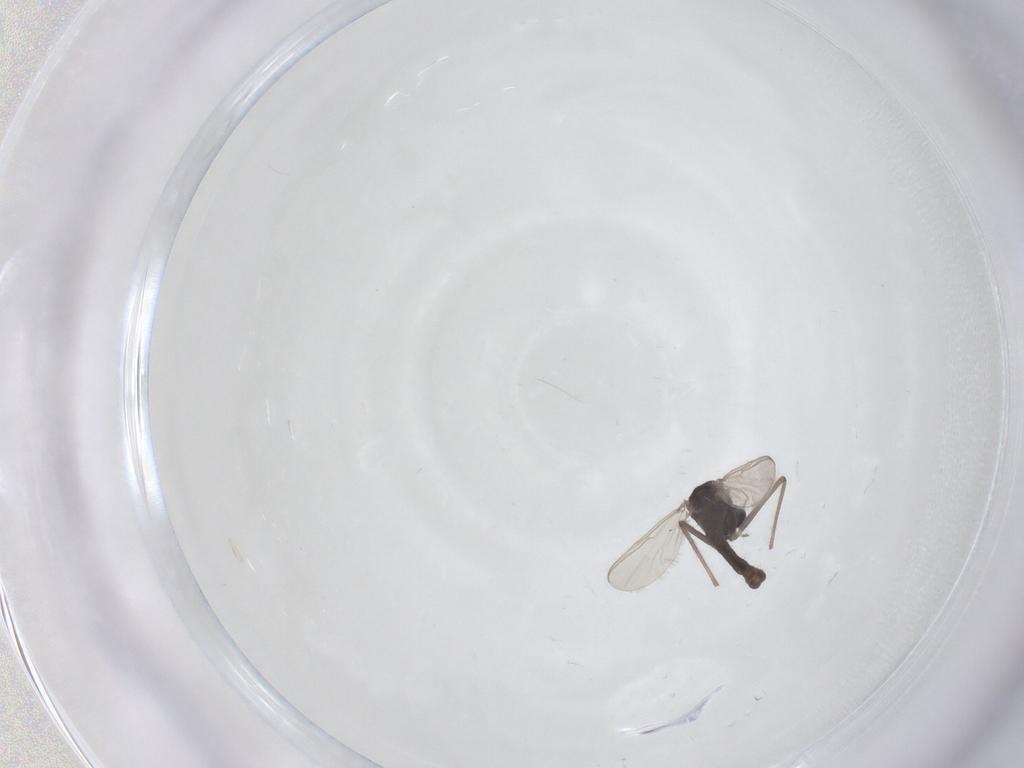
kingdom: Animalia
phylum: Arthropoda
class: Insecta
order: Diptera
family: Chironomidae
